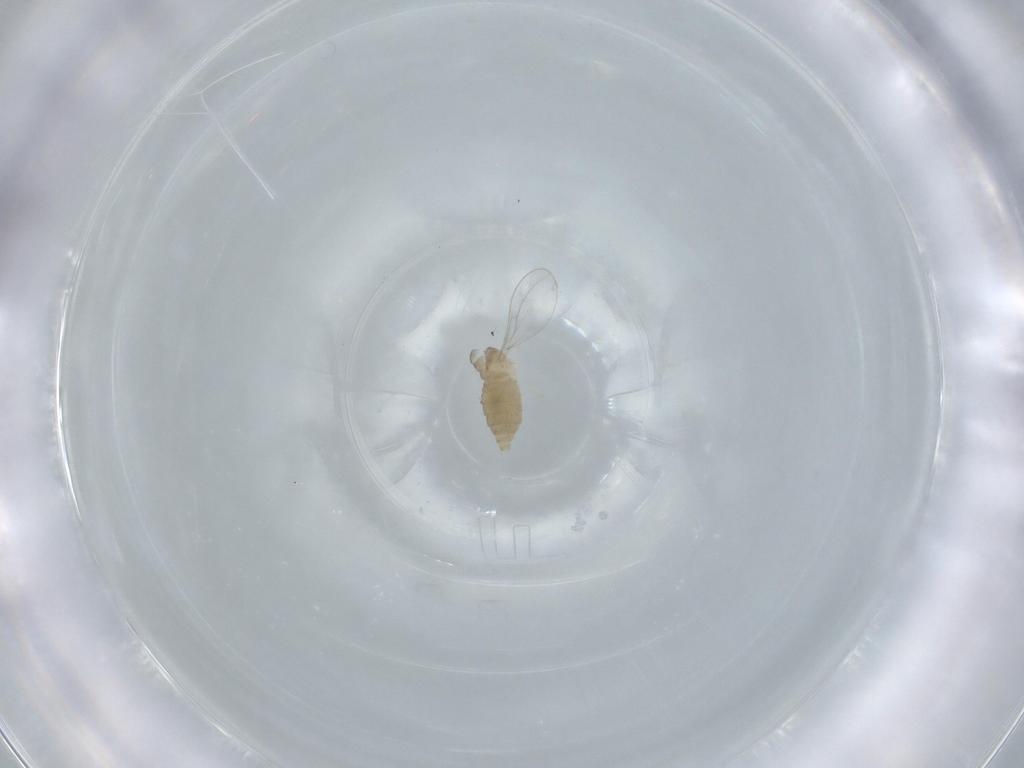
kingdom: Animalia
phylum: Arthropoda
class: Insecta
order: Diptera
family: Cecidomyiidae
